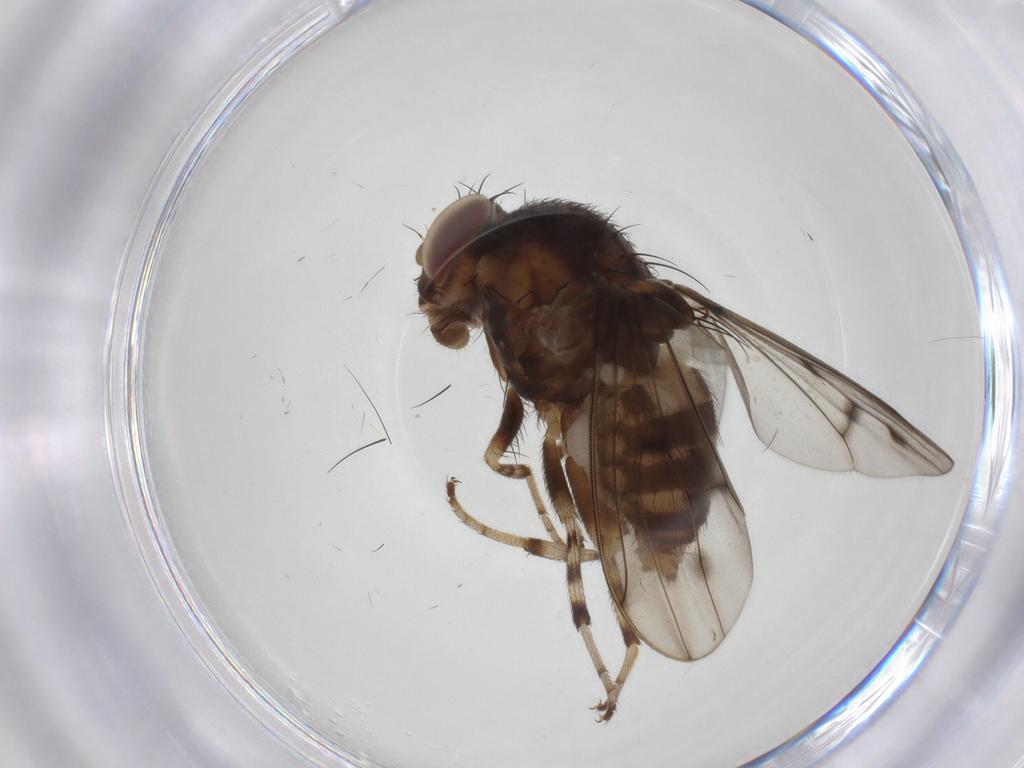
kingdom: Animalia
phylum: Arthropoda
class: Insecta
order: Diptera
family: Drosophilidae
